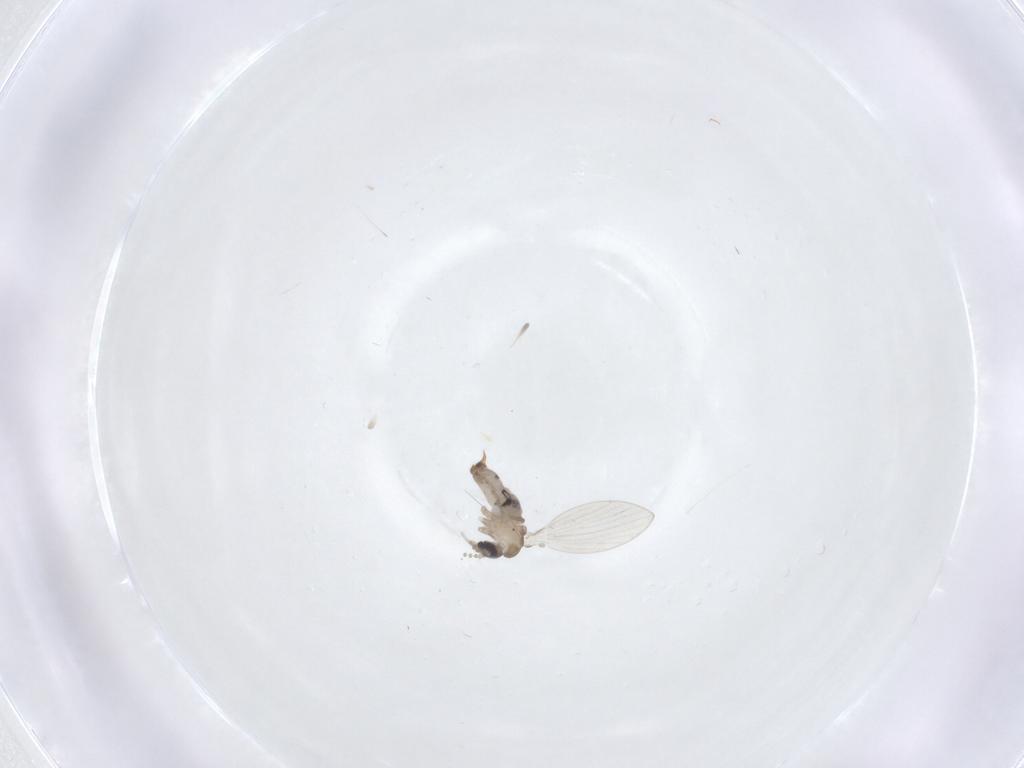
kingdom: Animalia
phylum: Arthropoda
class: Insecta
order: Diptera
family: Psychodidae
